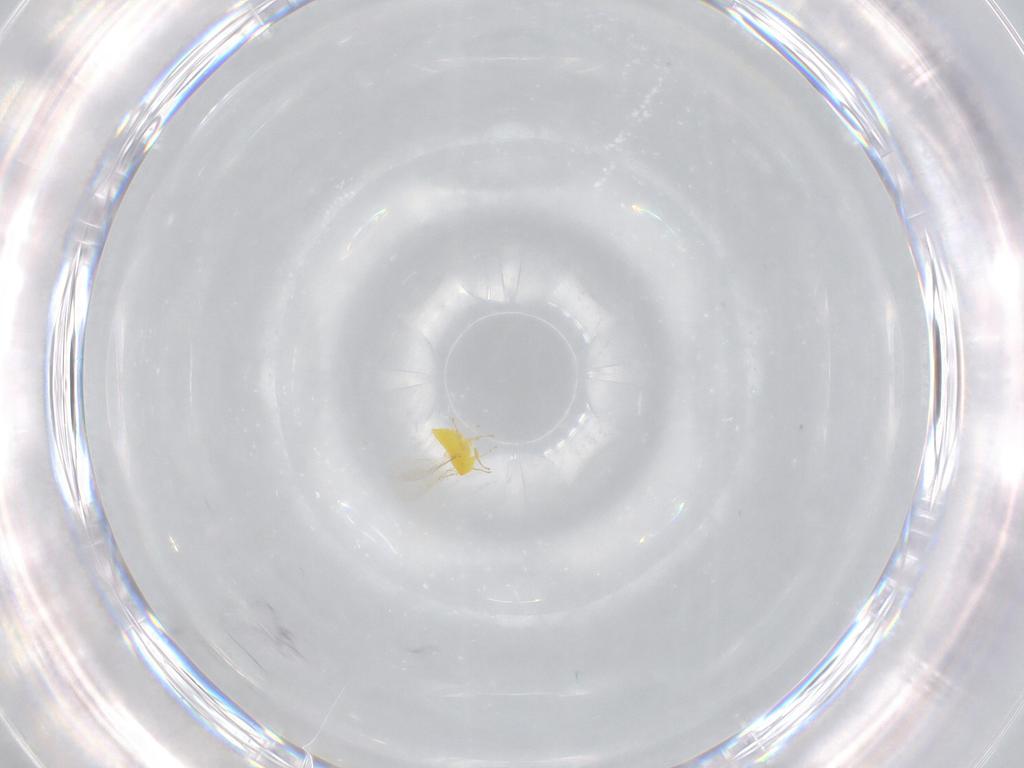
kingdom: Animalia
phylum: Arthropoda
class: Insecta
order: Hymenoptera
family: Aphelinidae
